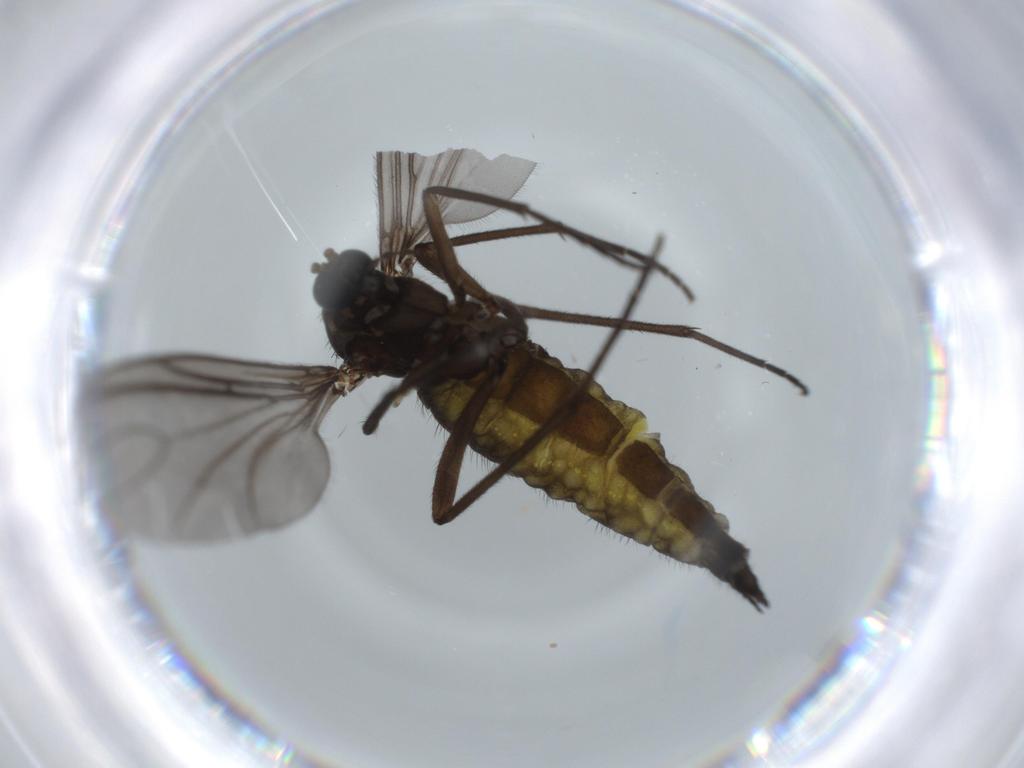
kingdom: Animalia
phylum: Arthropoda
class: Insecta
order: Diptera
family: Sciaridae
